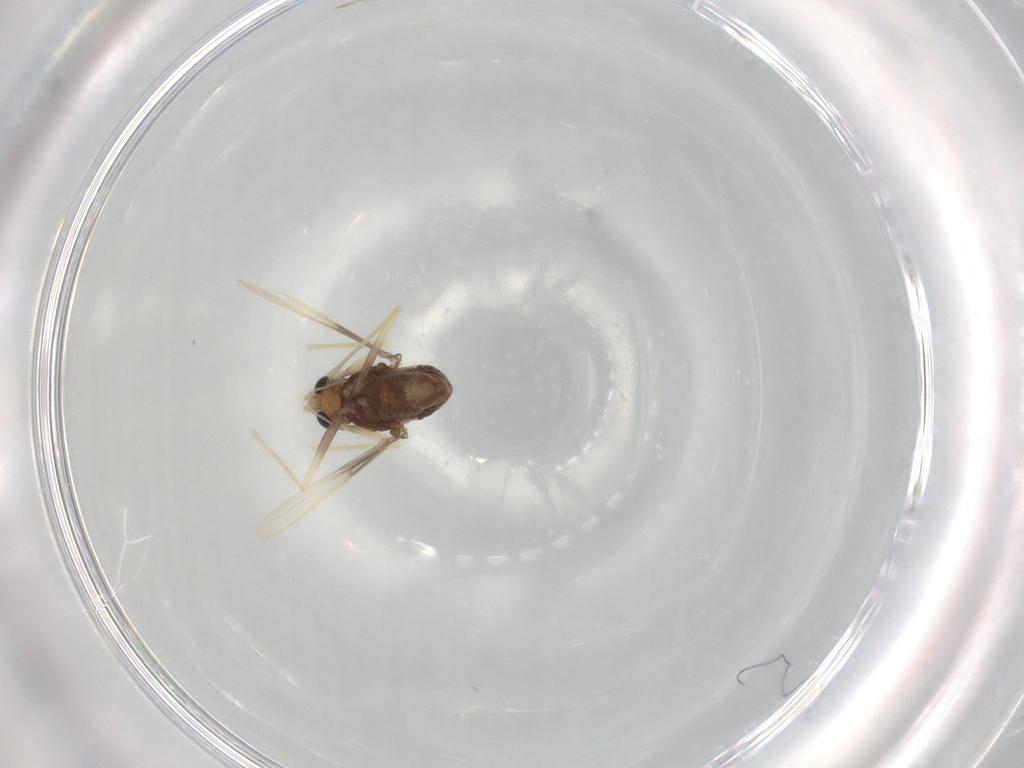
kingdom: Animalia
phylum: Arthropoda
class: Insecta
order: Diptera
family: Chironomidae
